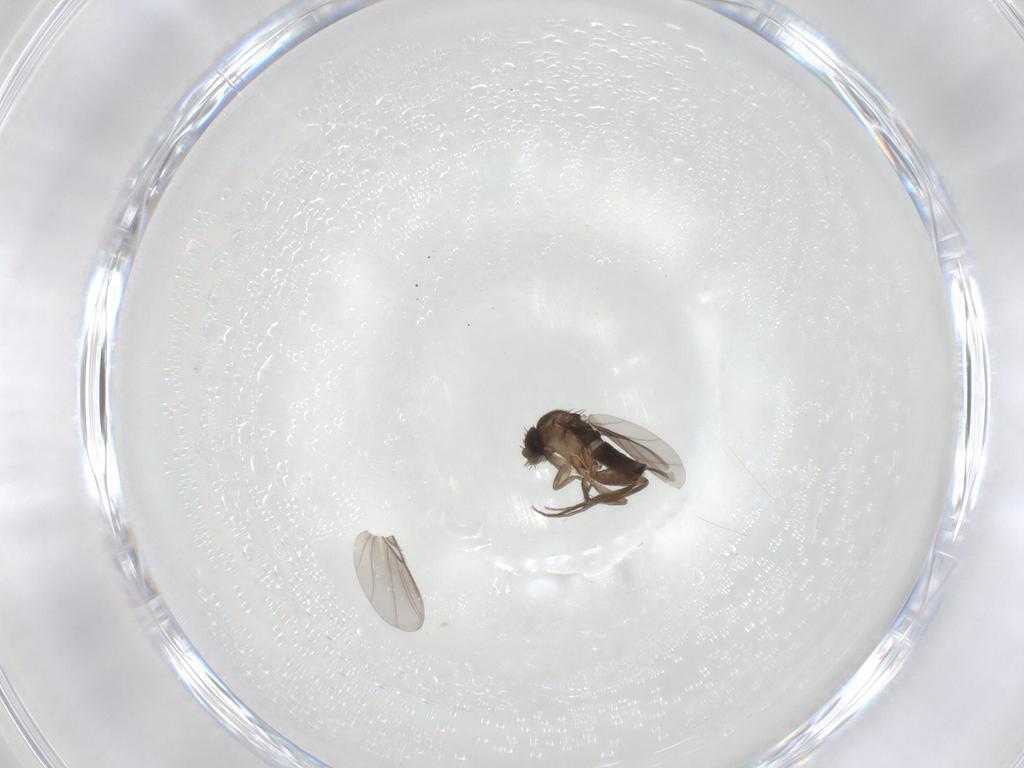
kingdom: Animalia
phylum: Arthropoda
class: Insecta
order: Diptera
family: Sciaridae
